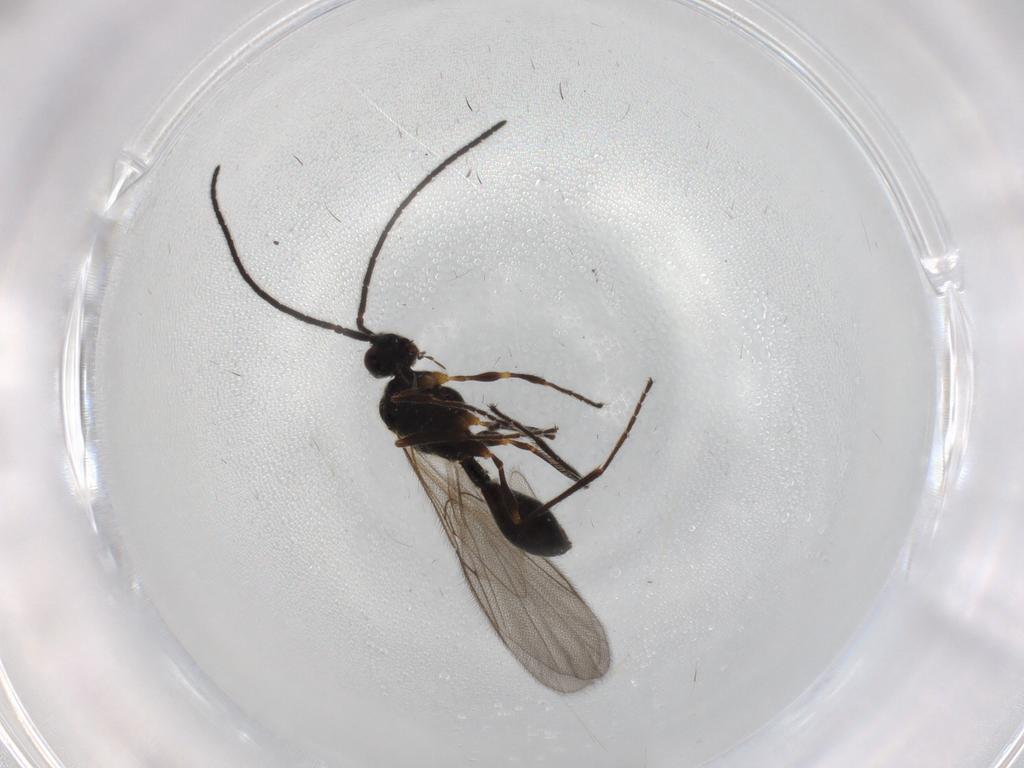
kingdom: Animalia
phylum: Arthropoda
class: Insecta
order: Hymenoptera
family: Diapriidae
